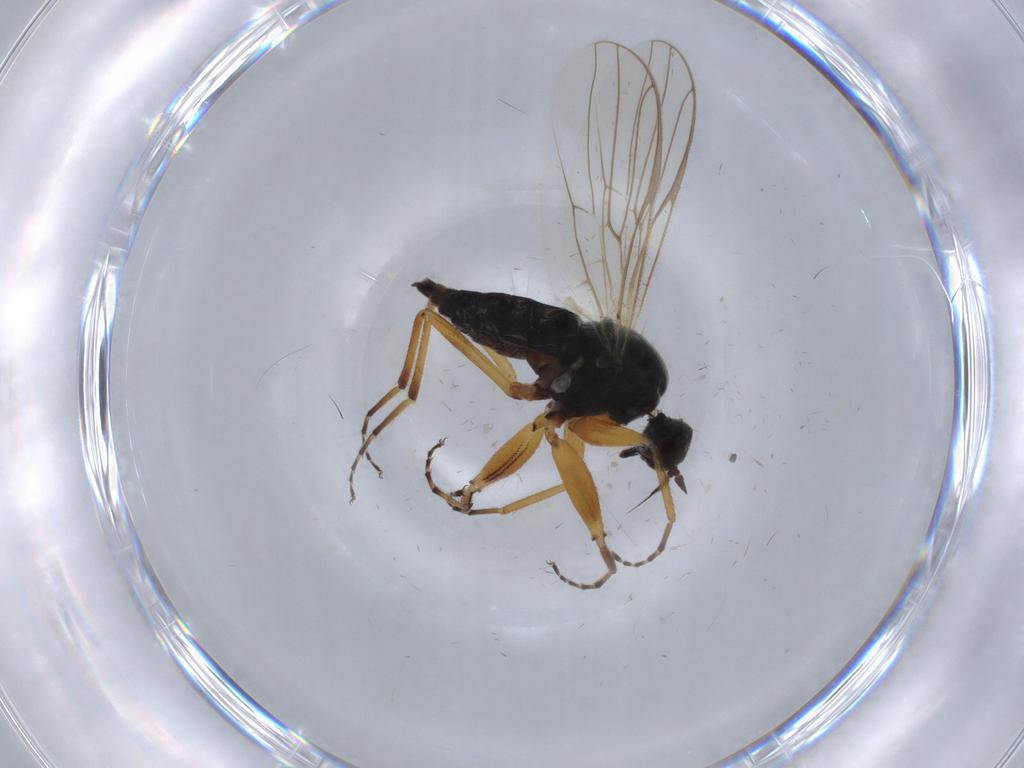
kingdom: Animalia
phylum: Arthropoda
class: Insecta
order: Diptera
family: Hybotidae
